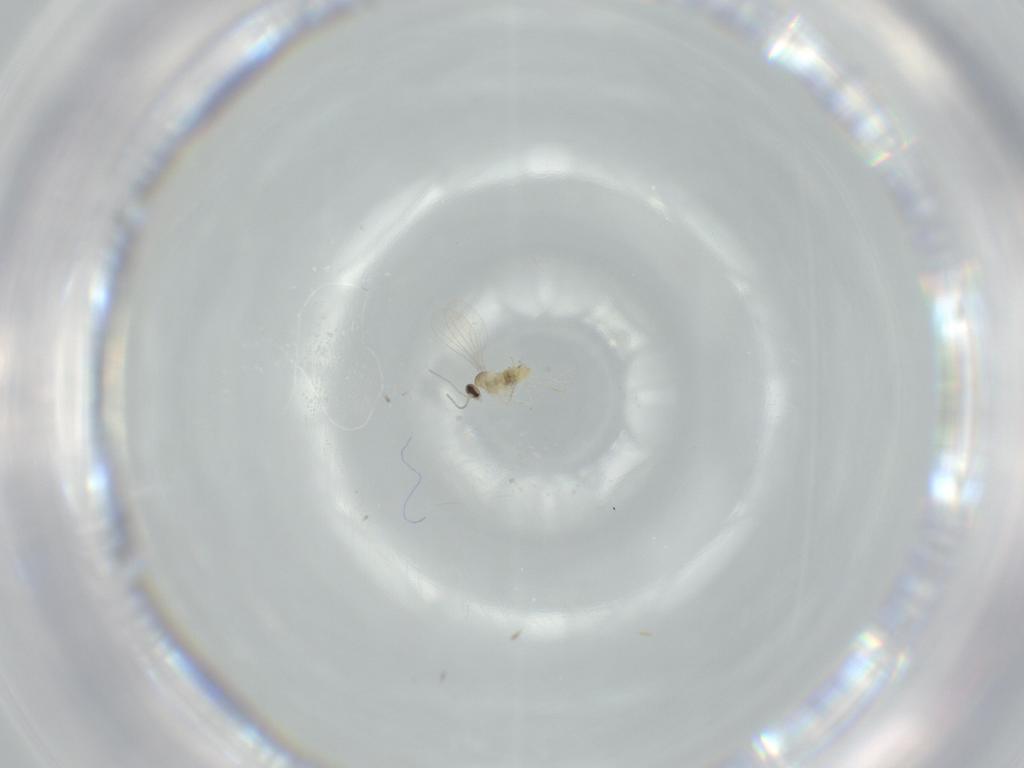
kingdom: Animalia
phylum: Arthropoda
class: Insecta
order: Diptera
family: Cecidomyiidae
